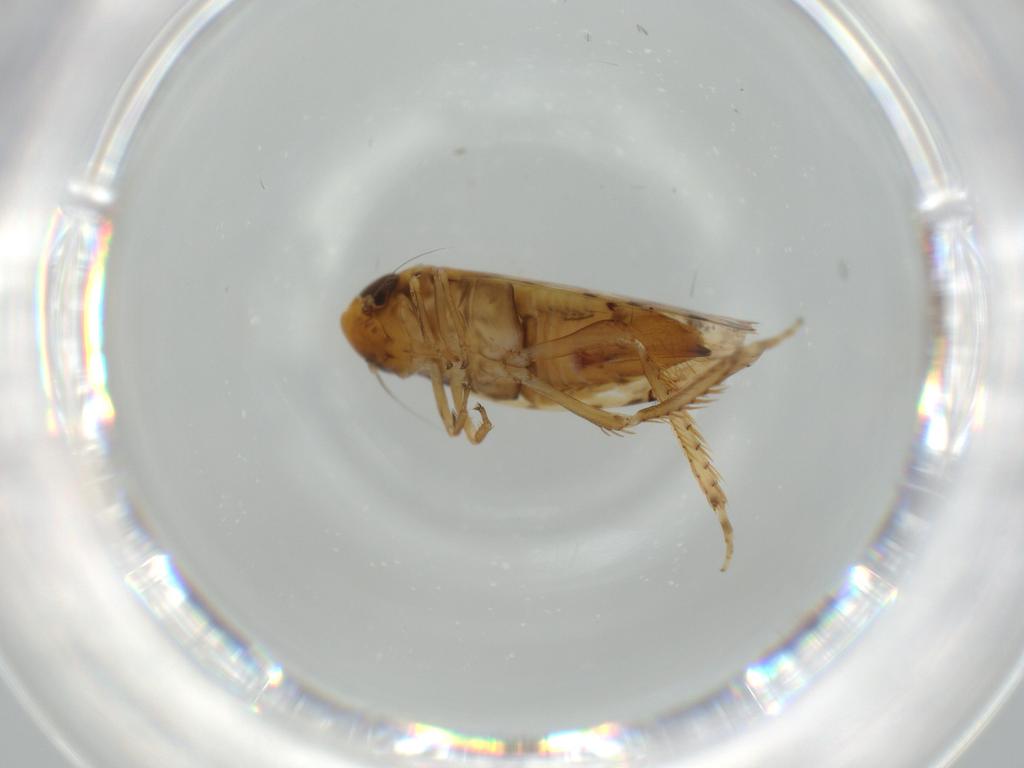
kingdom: Animalia
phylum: Arthropoda
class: Insecta
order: Hemiptera
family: Cicadellidae
